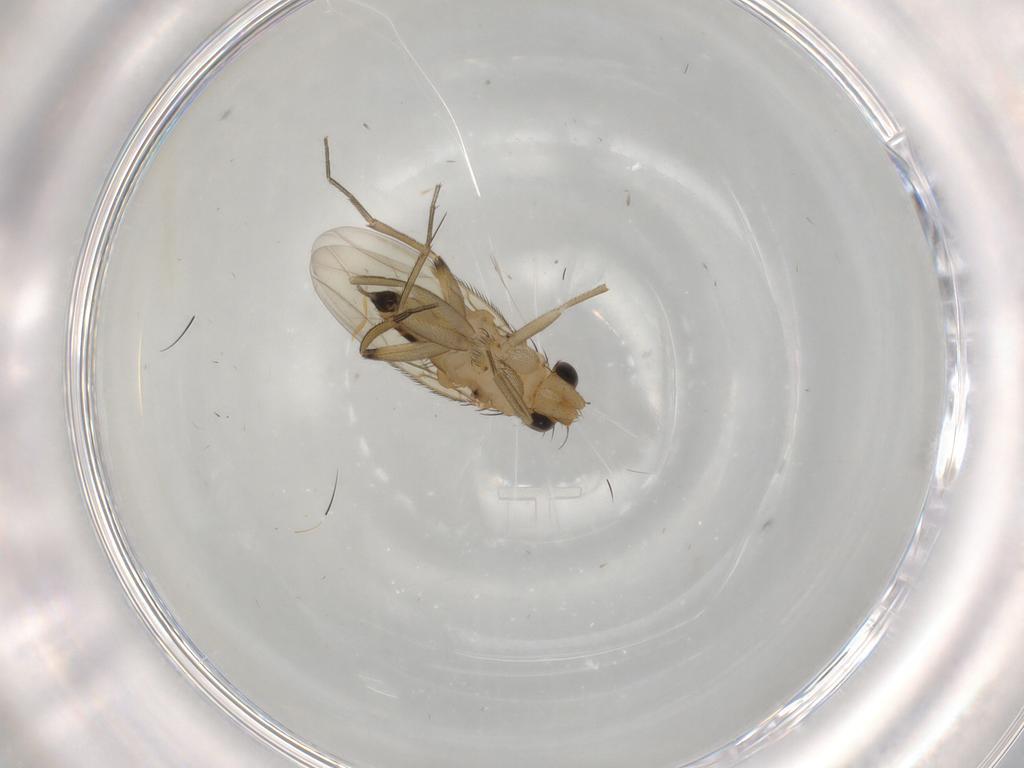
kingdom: Animalia
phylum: Arthropoda
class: Insecta
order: Diptera
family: Phoridae
